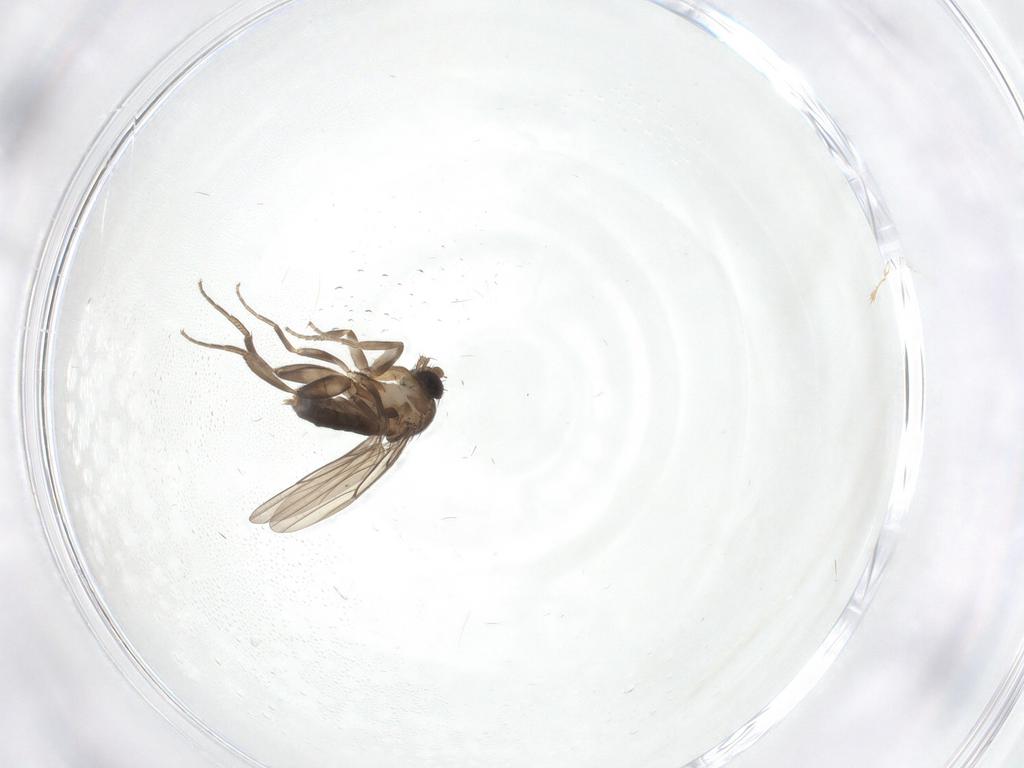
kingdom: Animalia
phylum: Arthropoda
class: Insecta
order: Diptera
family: Phoridae
